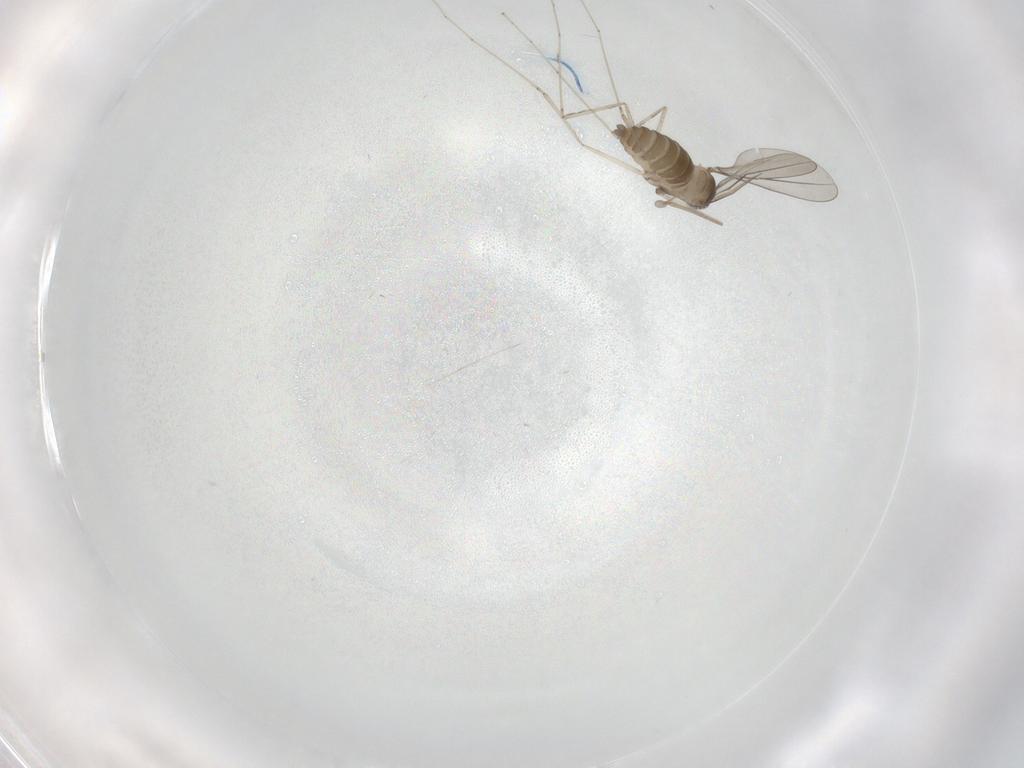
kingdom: Animalia
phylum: Arthropoda
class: Insecta
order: Diptera
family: Cecidomyiidae
